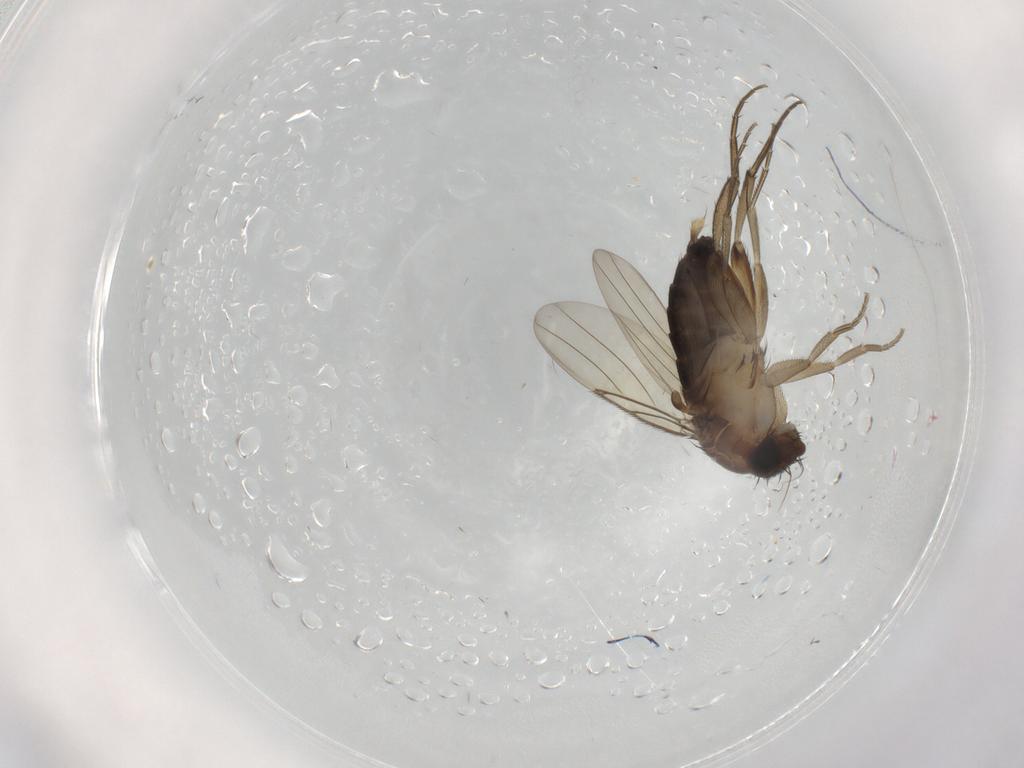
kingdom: Animalia
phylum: Arthropoda
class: Insecta
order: Diptera
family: Phoridae
